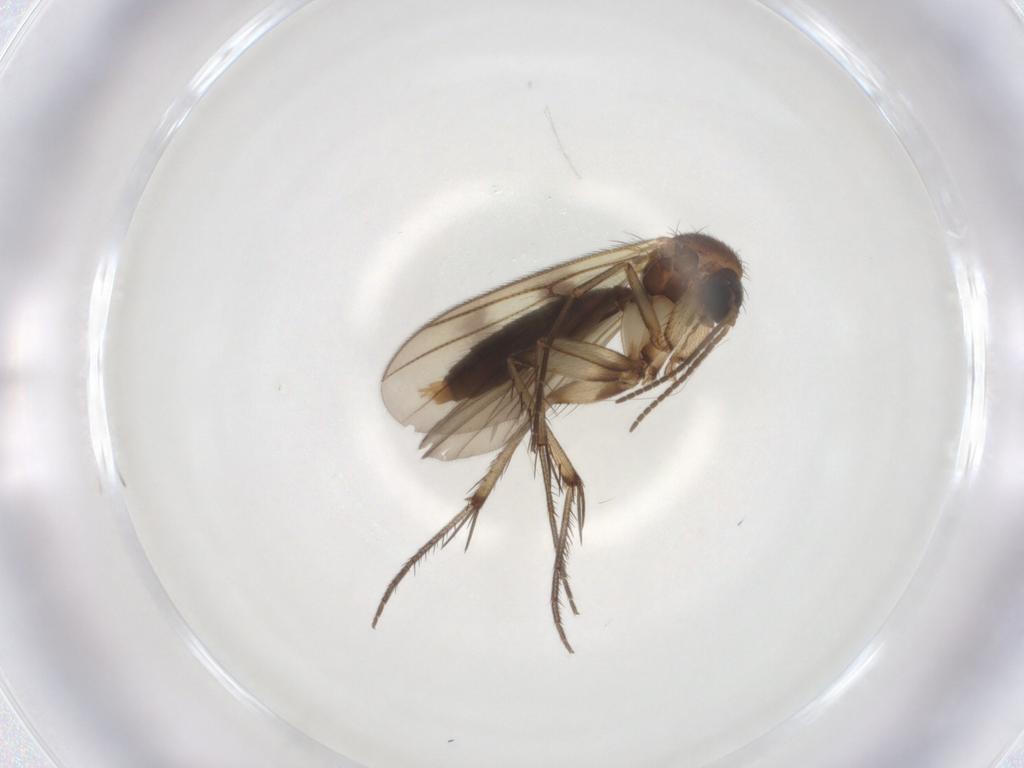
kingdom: Animalia
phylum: Arthropoda
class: Insecta
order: Diptera
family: Mycetophilidae
